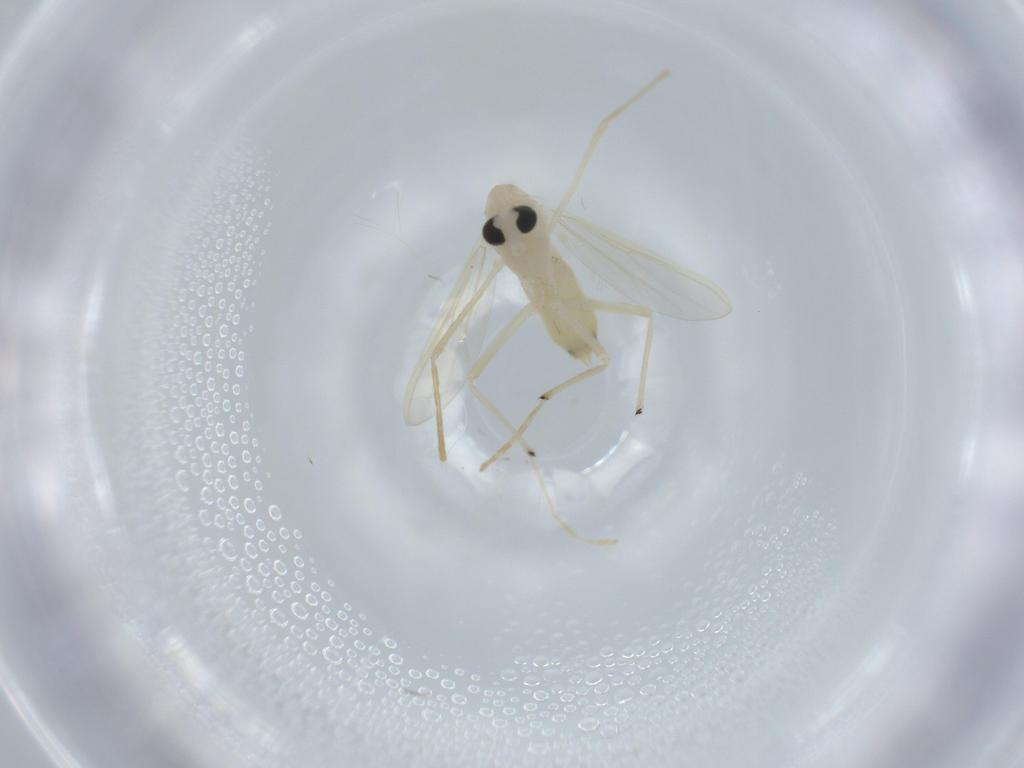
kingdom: Animalia
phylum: Arthropoda
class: Insecta
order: Diptera
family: Chironomidae
